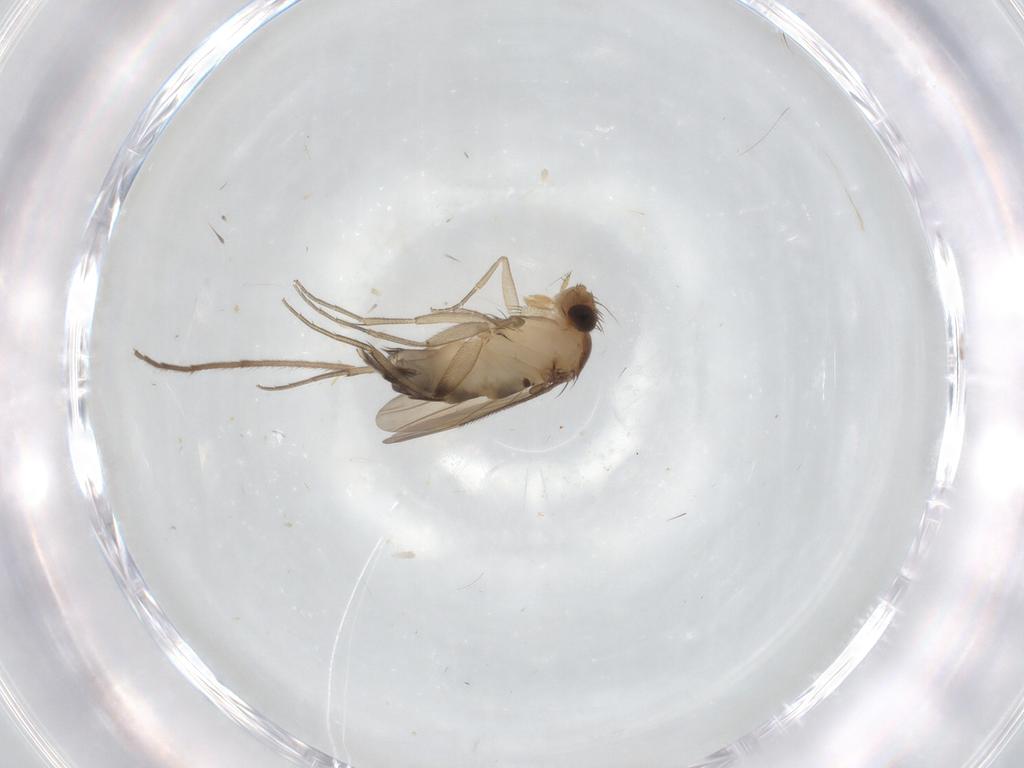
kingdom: Animalia
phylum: Arthropoda
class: Insecta
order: Diptera
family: Phoridae
